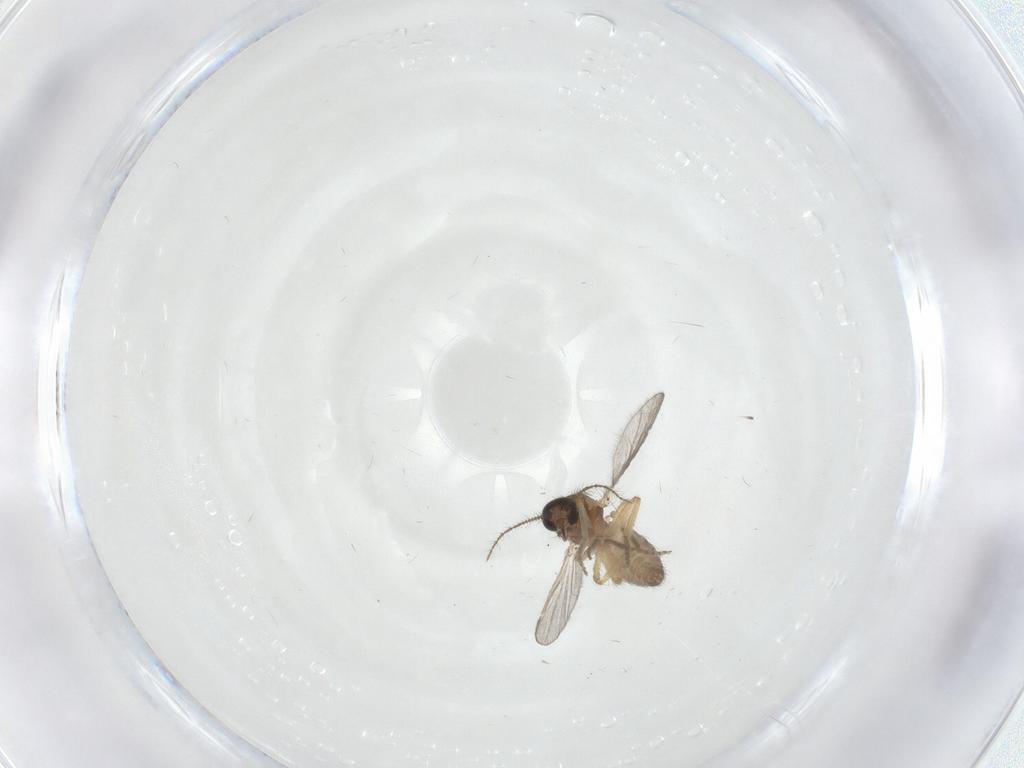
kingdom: Animalia
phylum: Arthropoda
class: Insecta
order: Diptera
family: Ceratopogonidae
